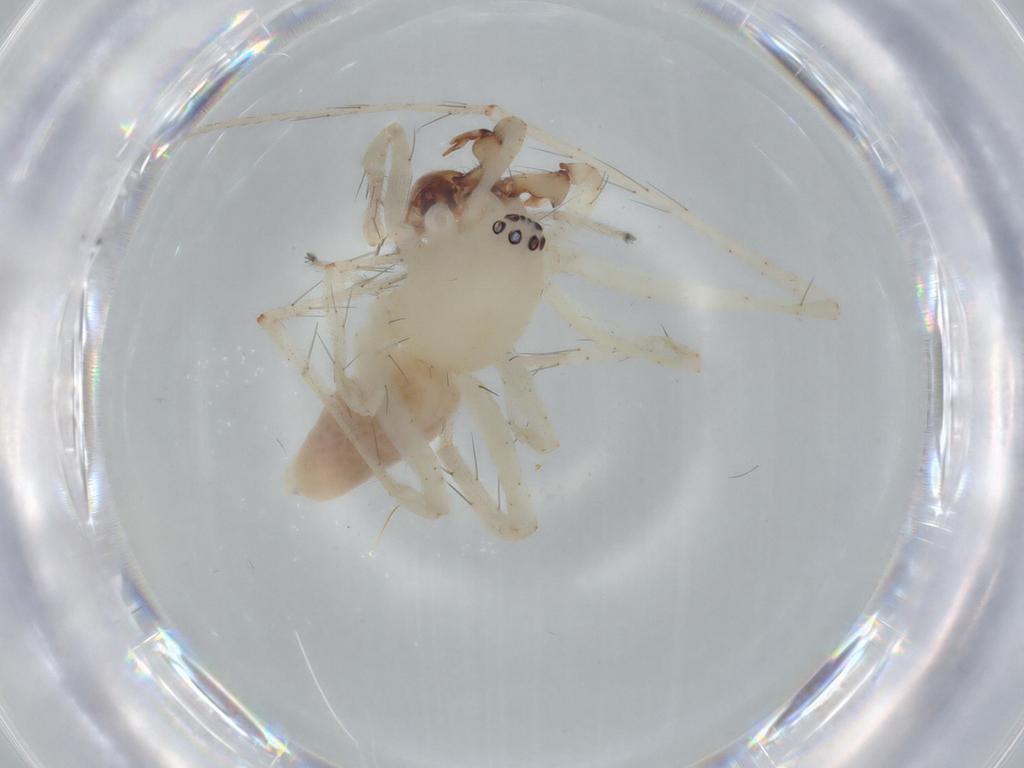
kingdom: Animalia
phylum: Arthropoda
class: Arachnida
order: Araneae
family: Anyphaenidae
